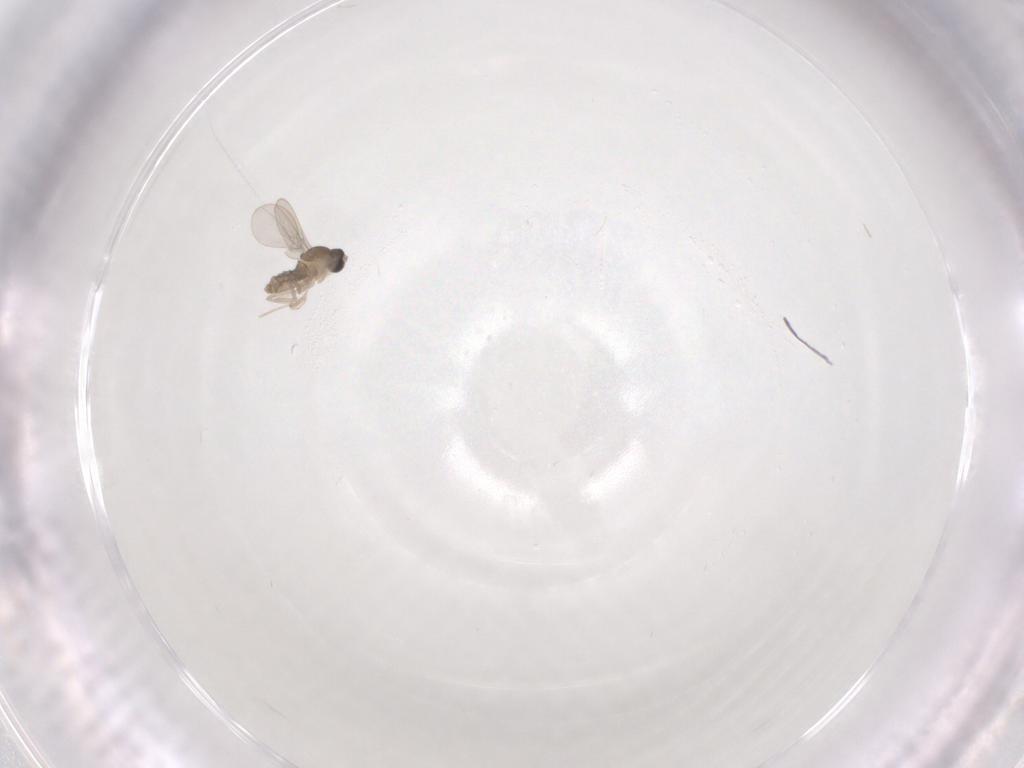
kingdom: Animalia
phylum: Arthropoda
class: Insecta
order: Diptera
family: Cecidomyiidae
